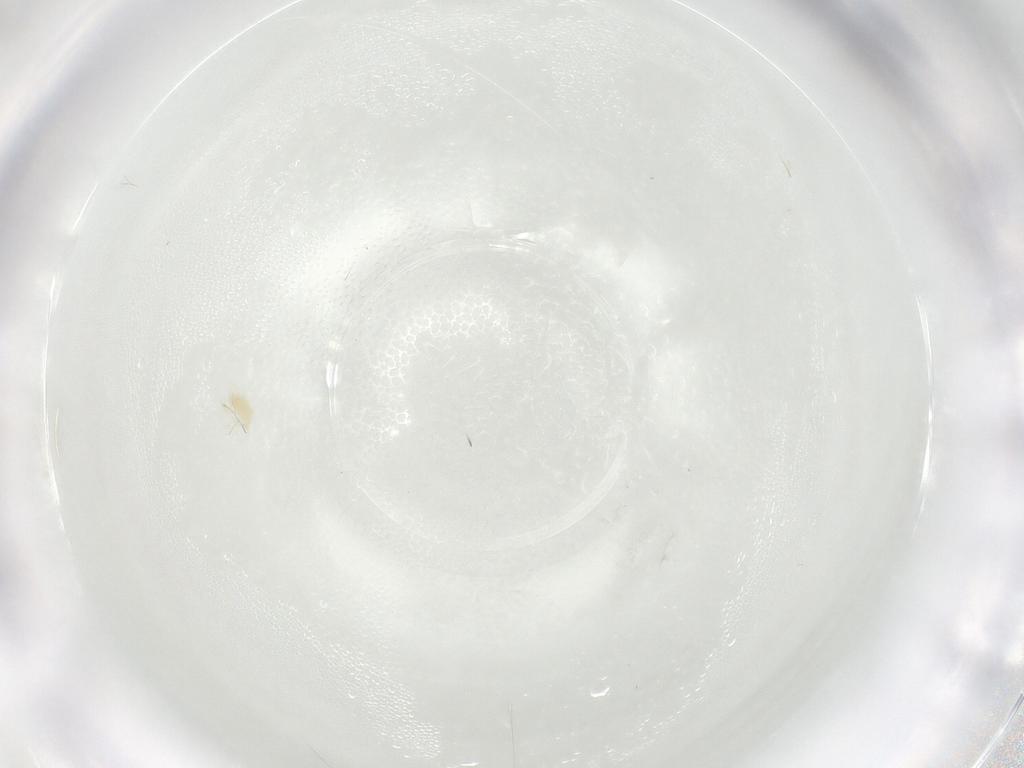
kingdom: Animalia
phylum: Arthropoda
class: Arachnida
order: Trombidiformes
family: Tetranychidae
